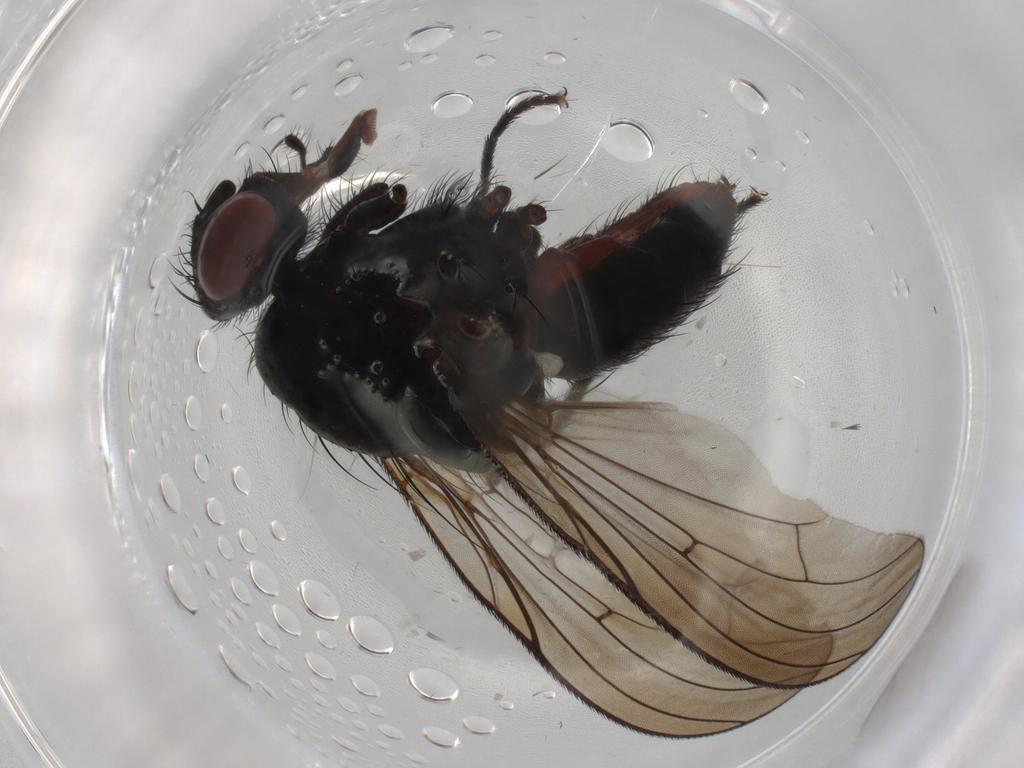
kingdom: Animalia
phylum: Arthropoda
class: Insecta
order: Diptera
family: Anthomyiidae
